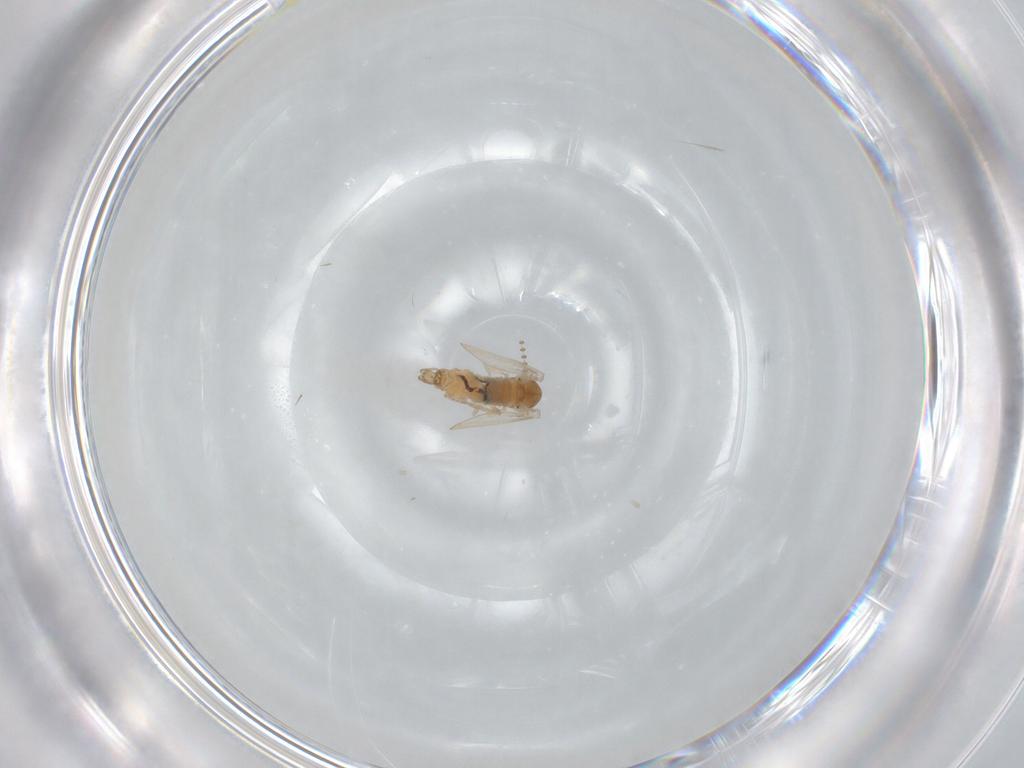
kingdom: Animalia
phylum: Arthropoda
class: Insecta
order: Diptera
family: Cecidomyiidae
